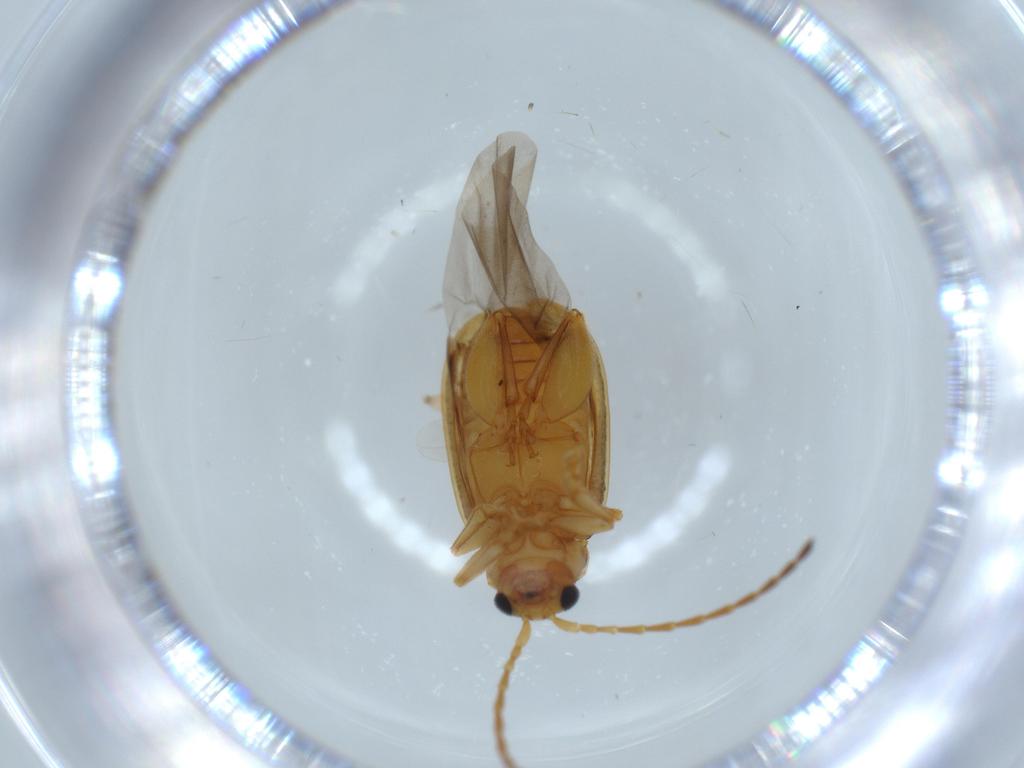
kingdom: Animalia
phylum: Arthropoda
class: Insecta
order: Coleoptera
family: Chrysomelidae
